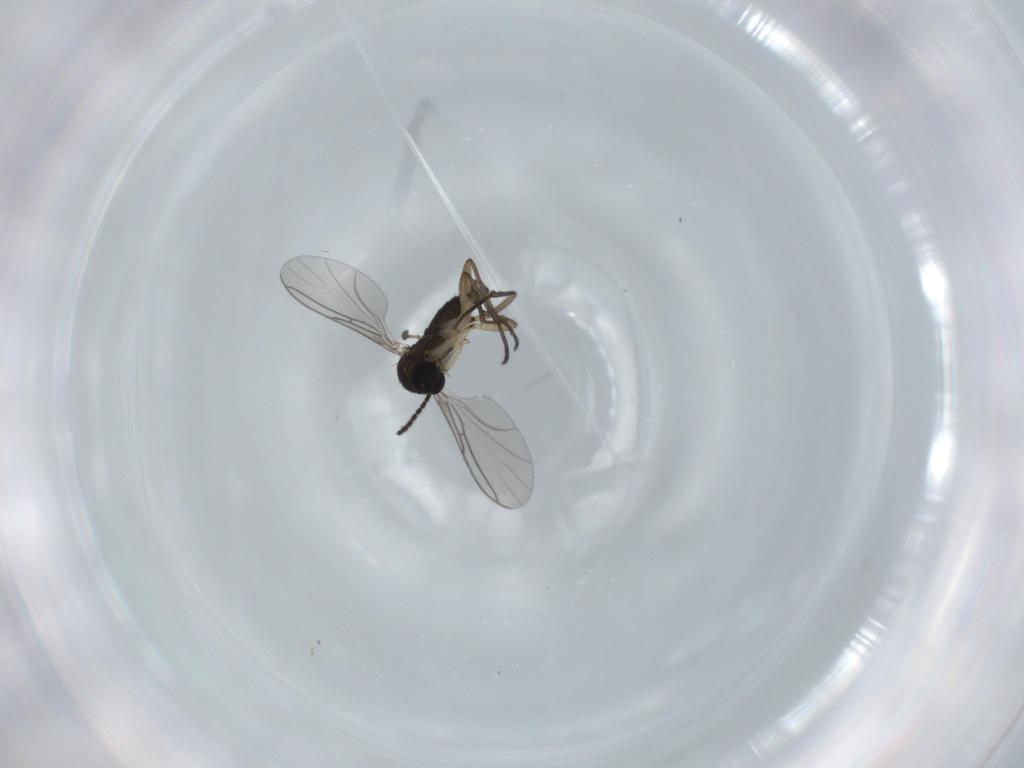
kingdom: Animalia
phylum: Arthropoda
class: Insecta
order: Diptera
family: Sciaridae
